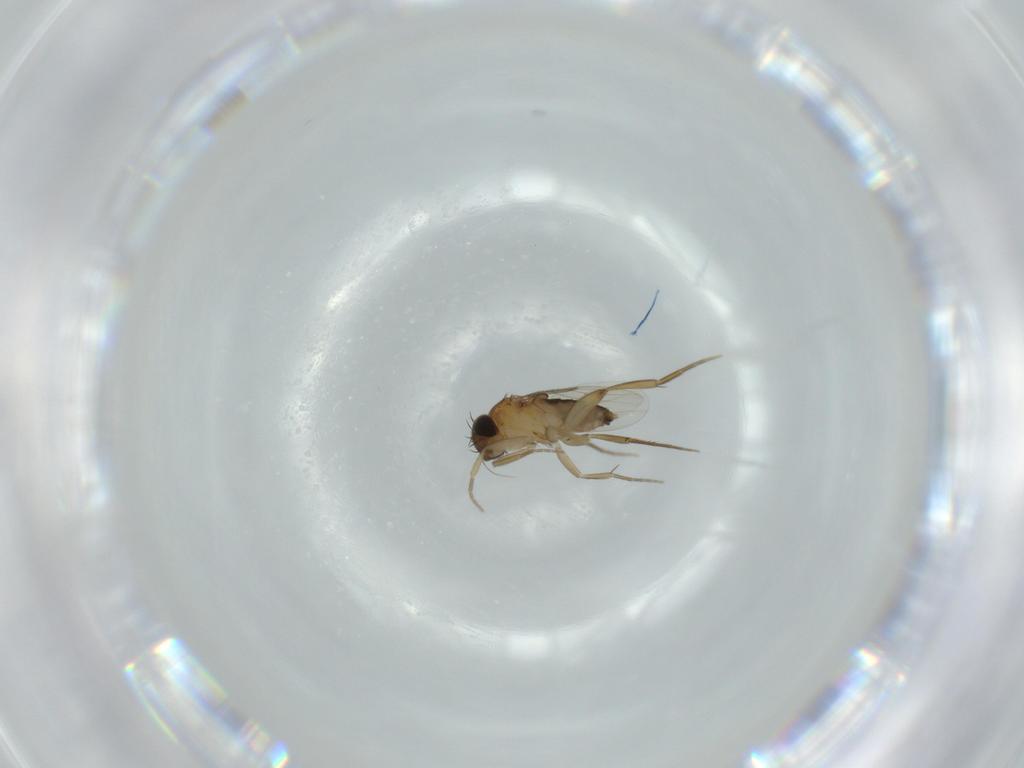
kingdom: Animalia
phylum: Arthropoda
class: Insecta
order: Diptera
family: Phoridae
